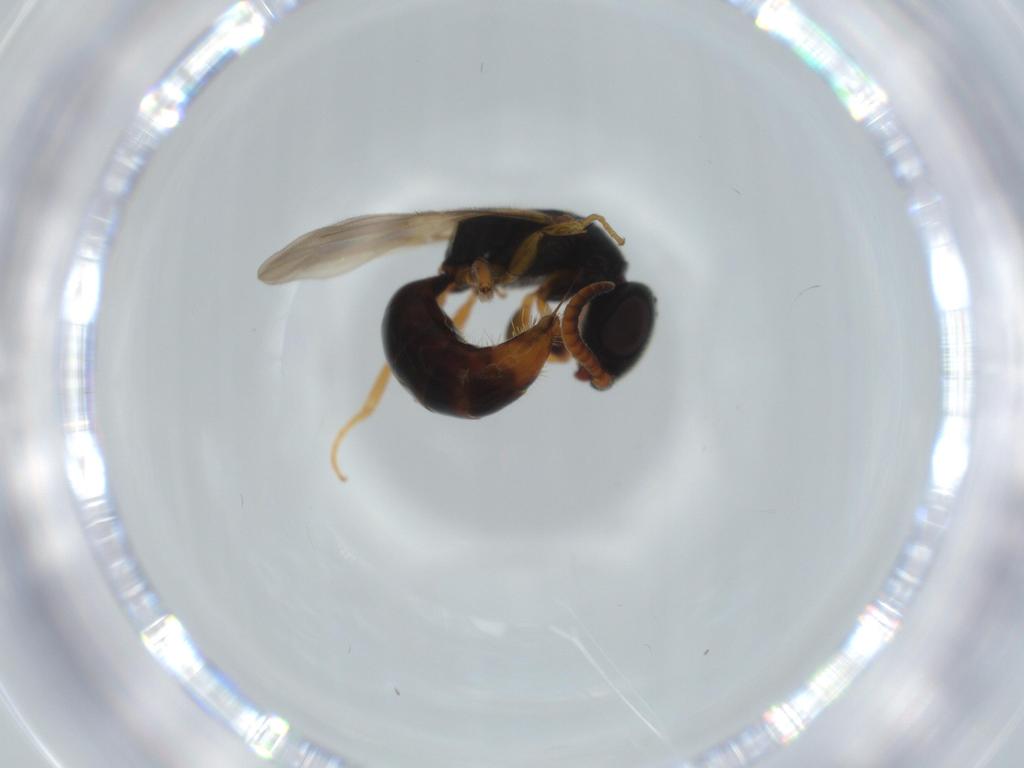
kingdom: Animalia
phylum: Arthropoda
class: Insecta
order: Hymenoptera
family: Bethylidae
